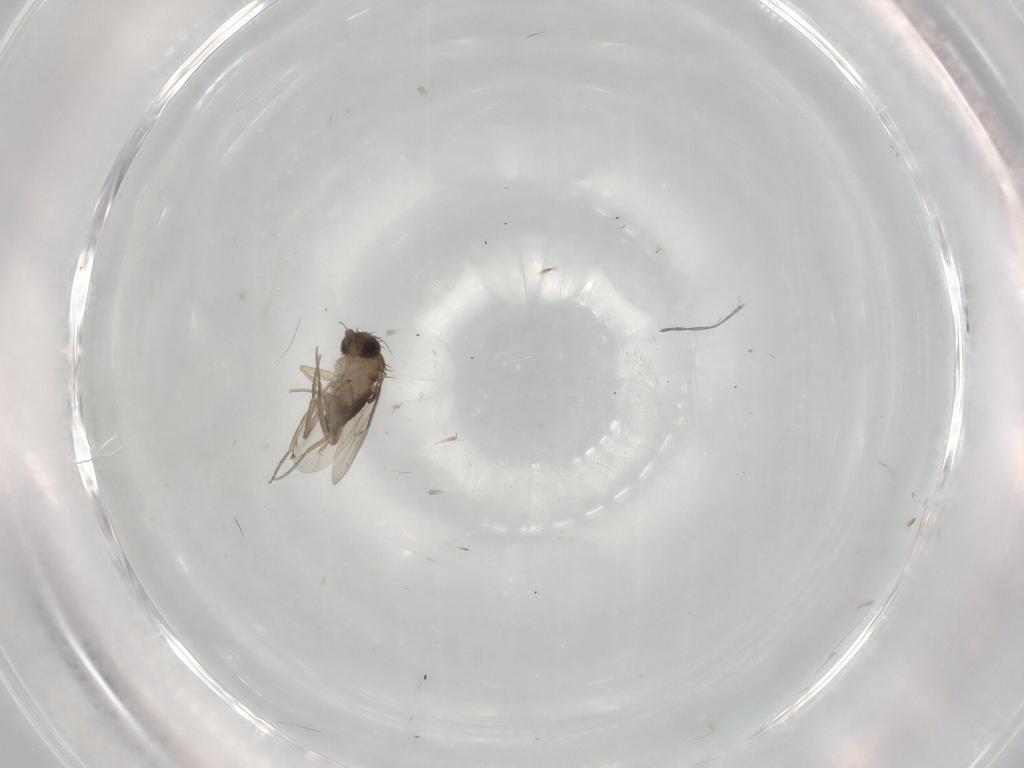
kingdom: Animalia
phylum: Arthropoda
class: Insecta
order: Diptera
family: Phoridae
